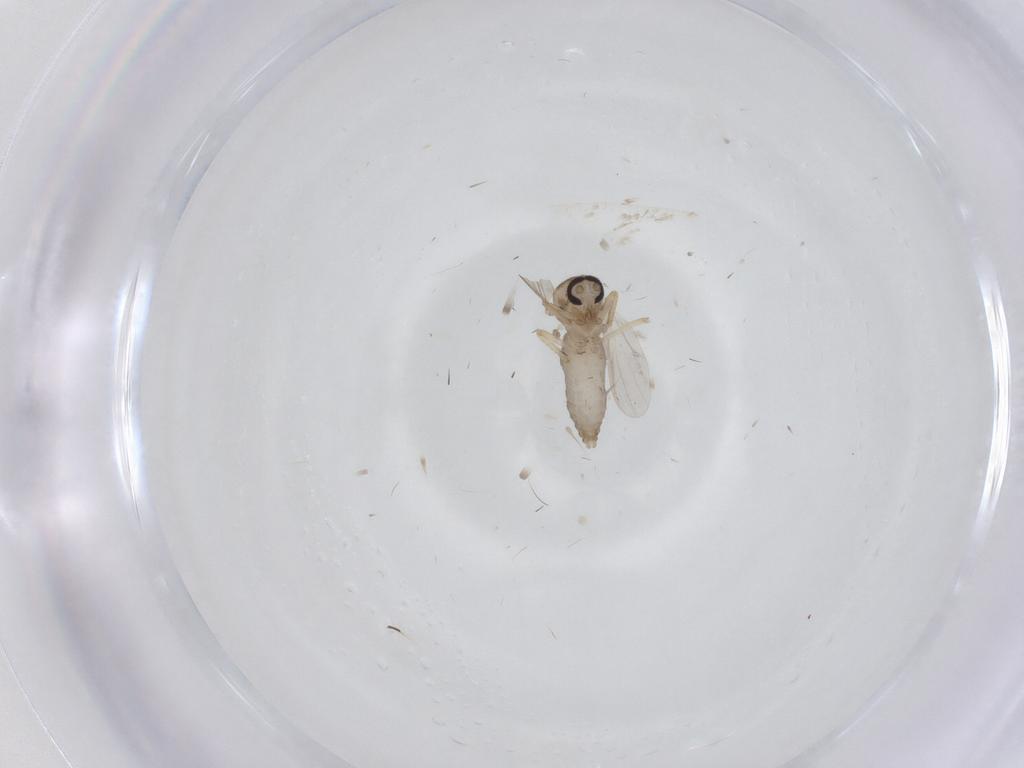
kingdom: Animalia
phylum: Arthropoda
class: Insecta
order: Diptera
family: Ceratopogonidae
